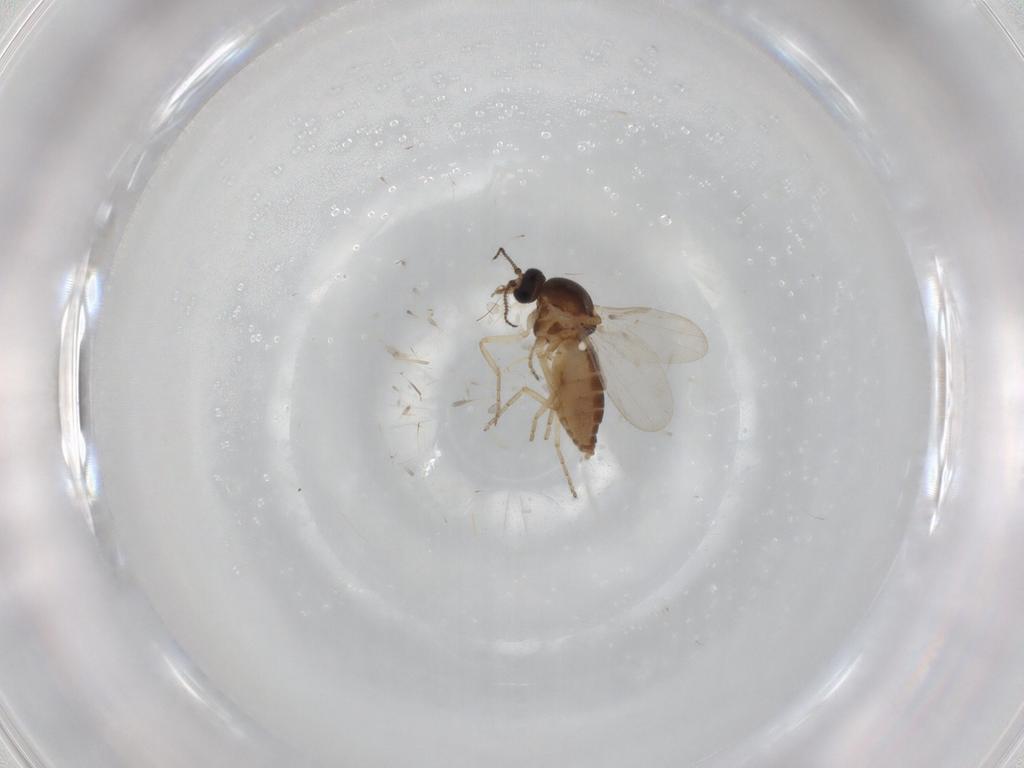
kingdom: Animalia
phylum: Arthropoda
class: Insecta
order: Diptera
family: Ceratopogonidae
